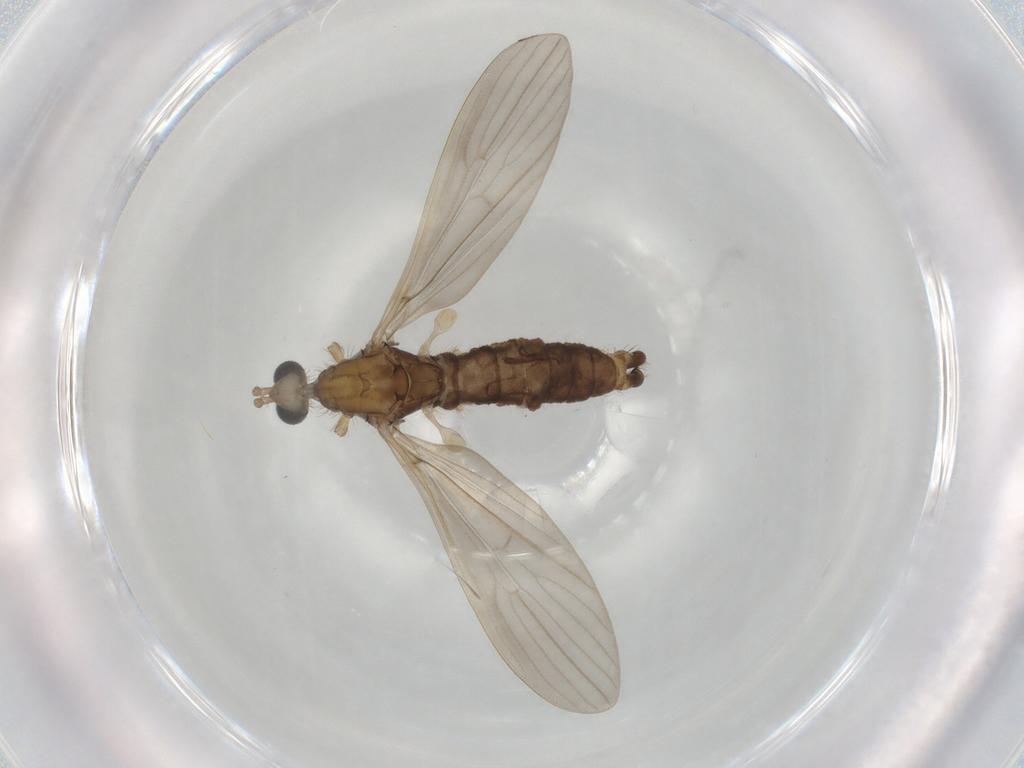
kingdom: Animalia
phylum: Arthropoda
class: Insecta
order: Diptera
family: Limoniidae
